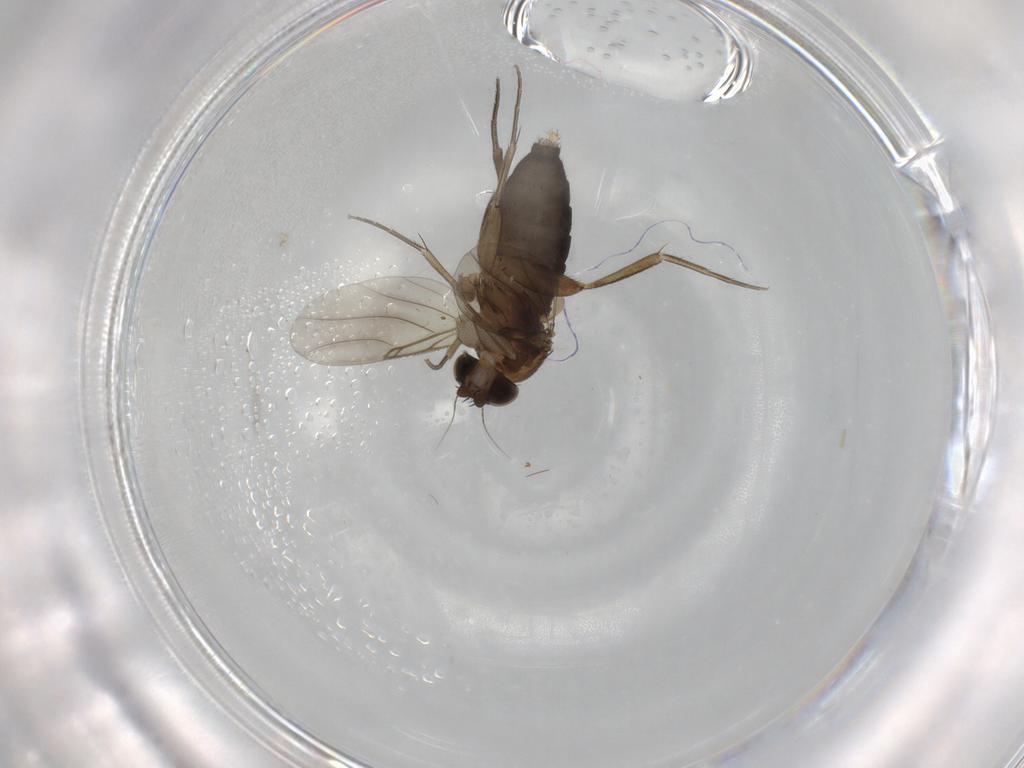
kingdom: Animalia
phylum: Arthropoda
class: Insecta
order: Diptera
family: Phoridae
